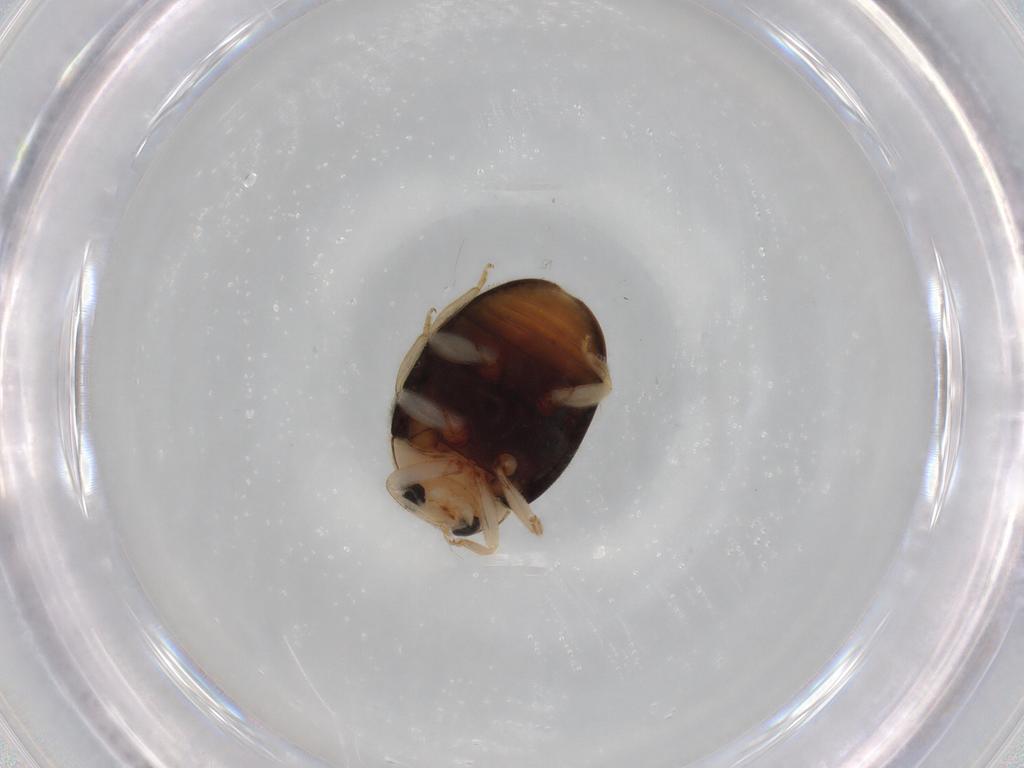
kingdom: Animalia
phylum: Arthropoda
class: Insecta
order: Coleoptera
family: Coccinellidae
